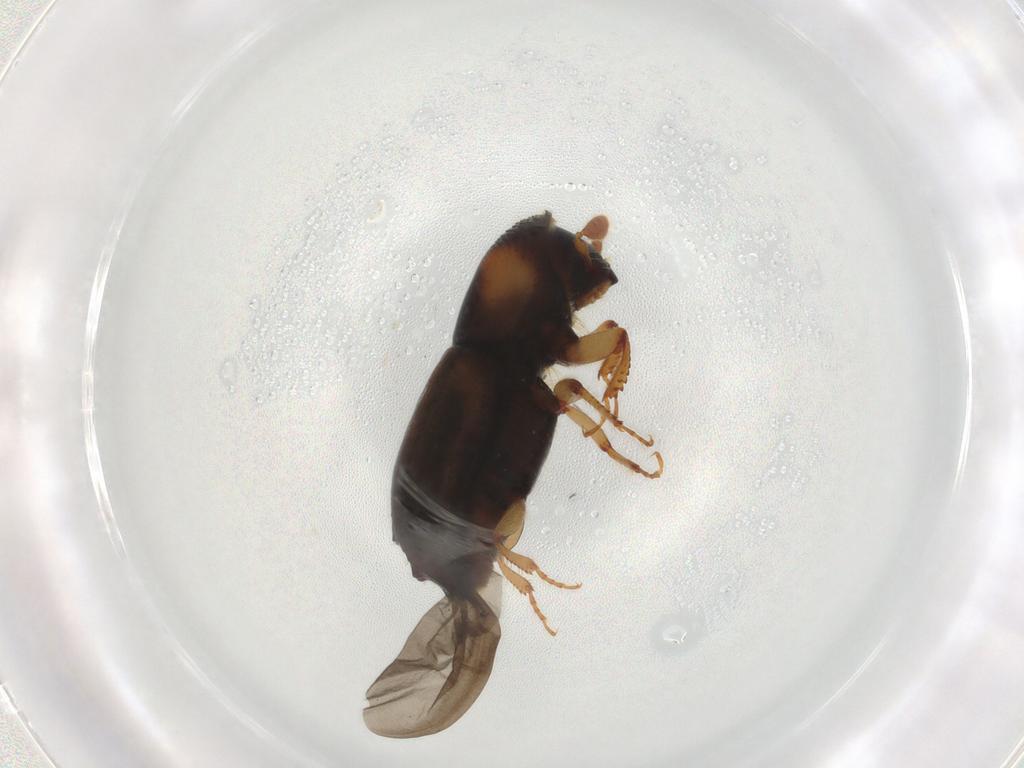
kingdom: Animalia
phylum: Arthropoda
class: Insecta
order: Coleoptera
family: Curculionidae
